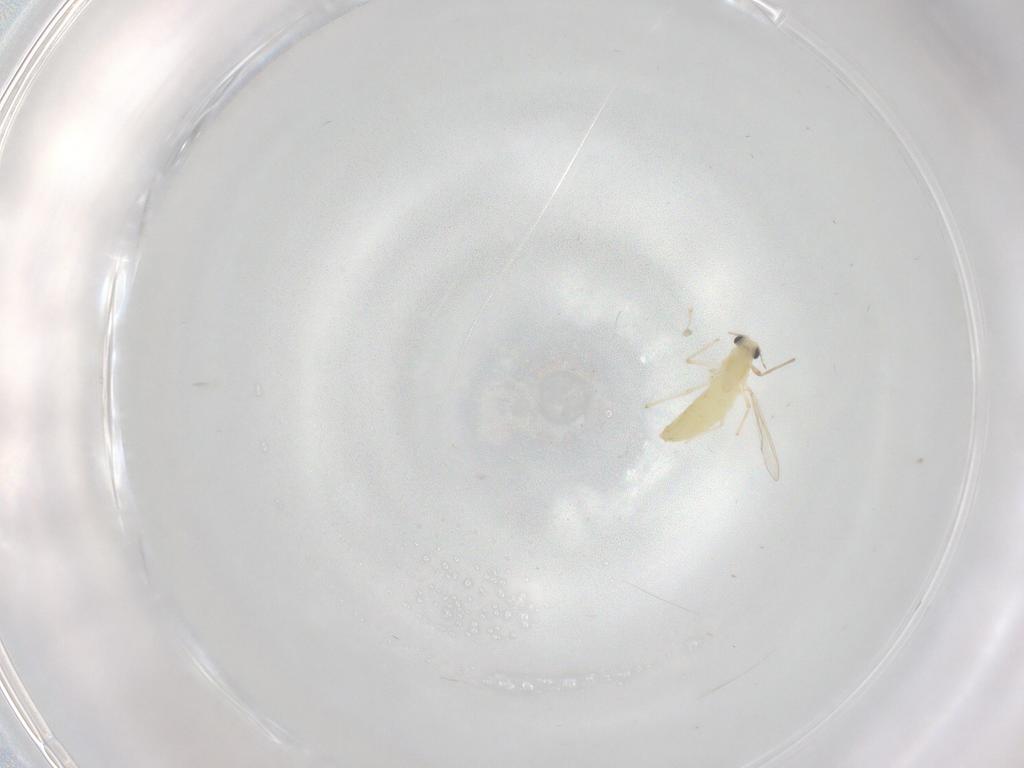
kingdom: Animalia
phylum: Arthropoda
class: Insecta
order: Diptera
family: Chironomidae
